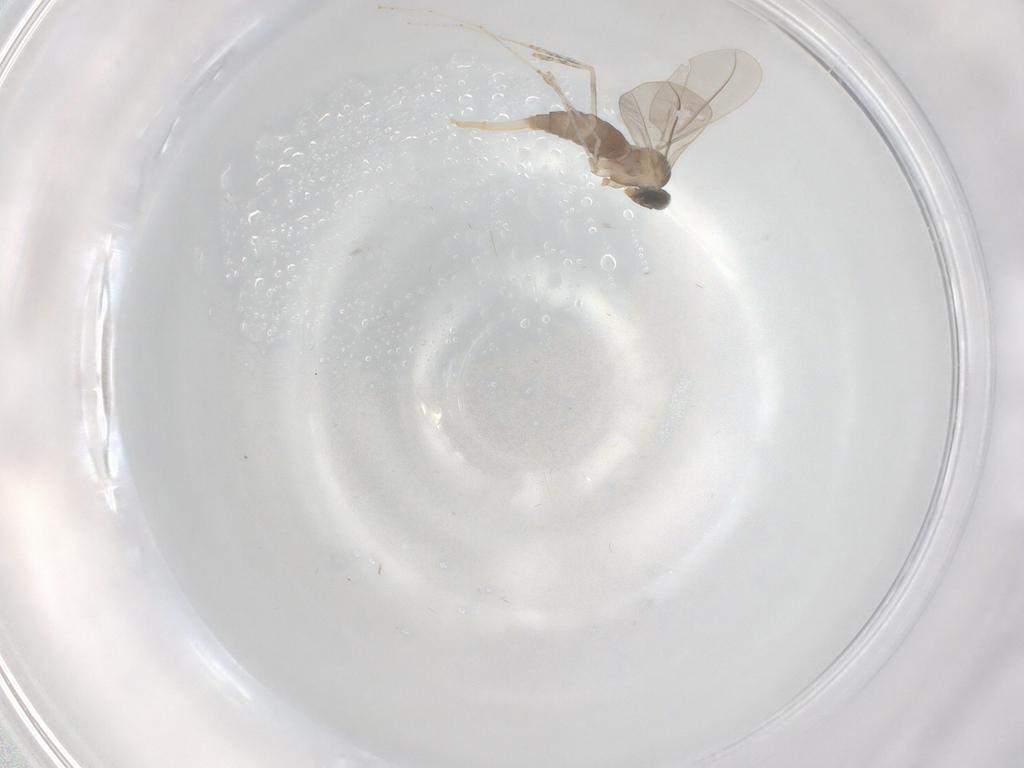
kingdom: Animalia
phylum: Arthropoda
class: Insecta
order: Diptera
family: Cecidomyiidae
